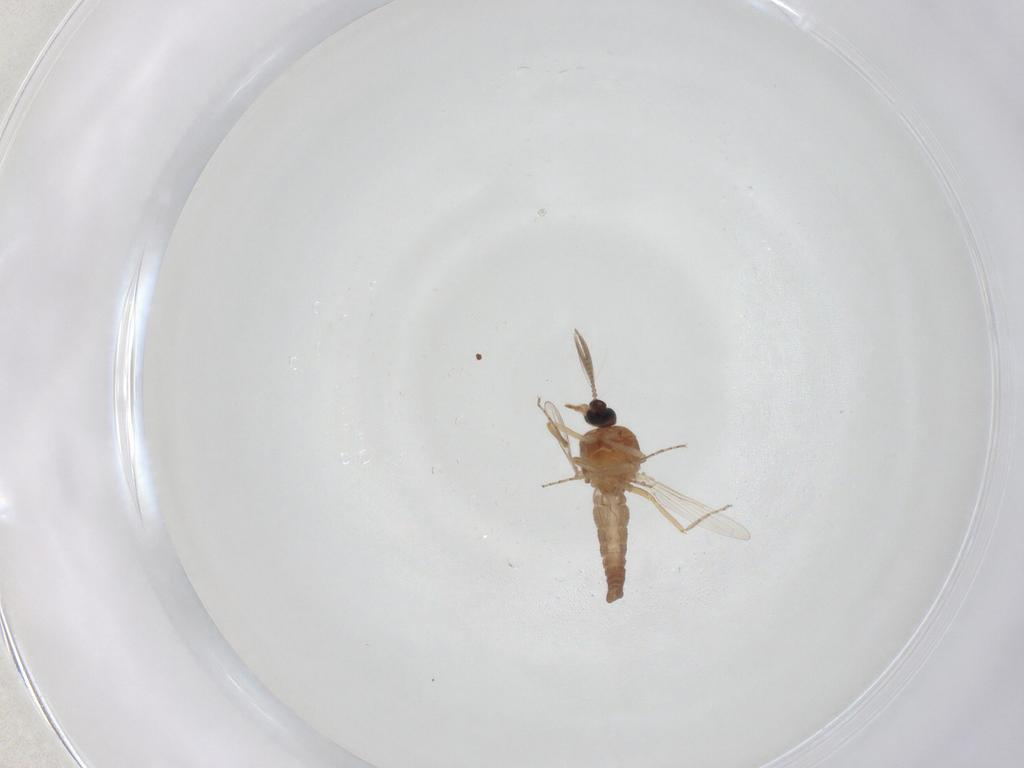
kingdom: Animalia
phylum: Arthropoda
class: Insecta
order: Diptera
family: Ceratopogonidae
